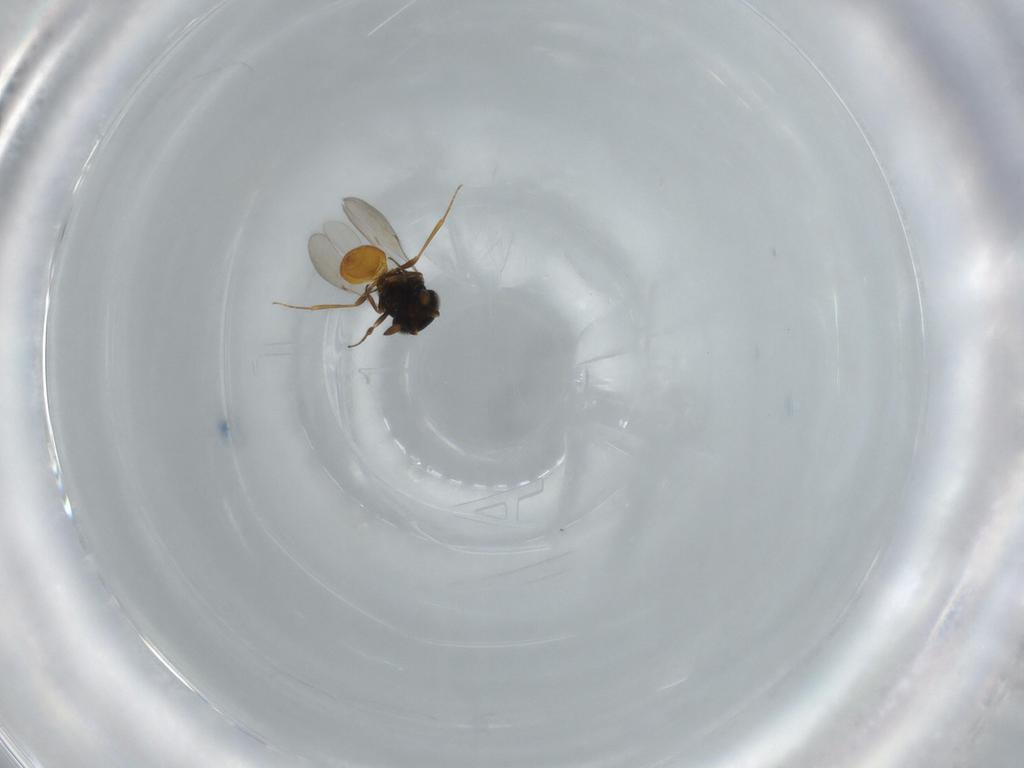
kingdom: Animalia
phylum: Arthropoda
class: Insecta
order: Hymenoptera
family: Scelionidae
